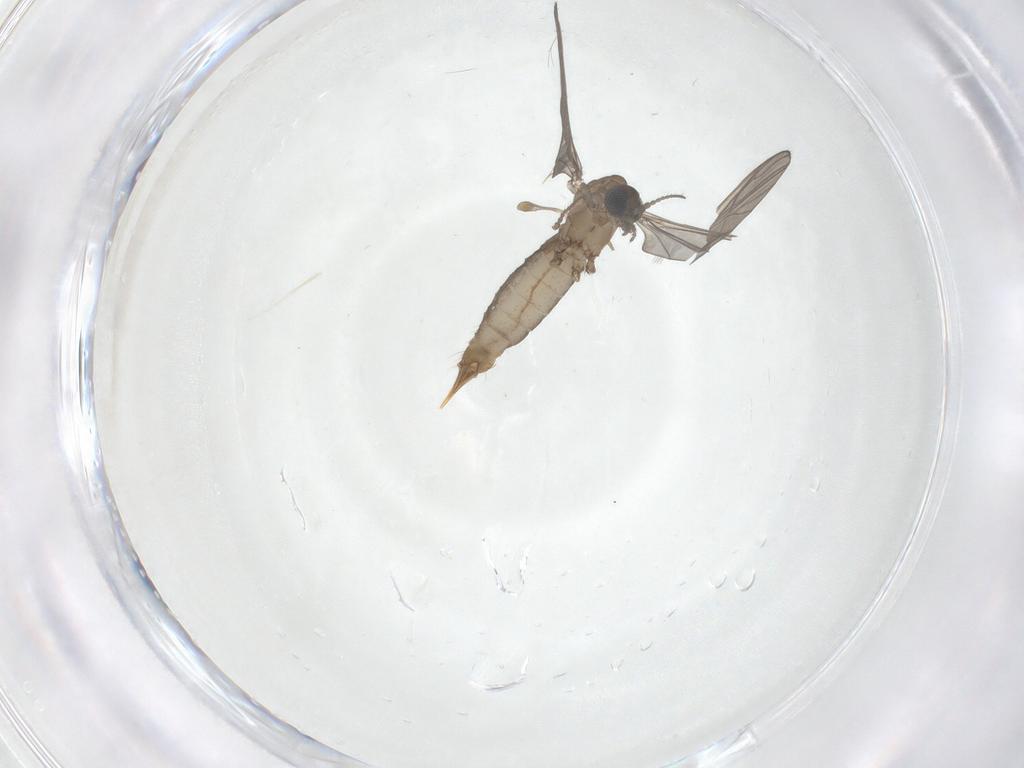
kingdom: Animalia
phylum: Arthropoda
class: Insecta
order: Diptera
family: Limoniidae
